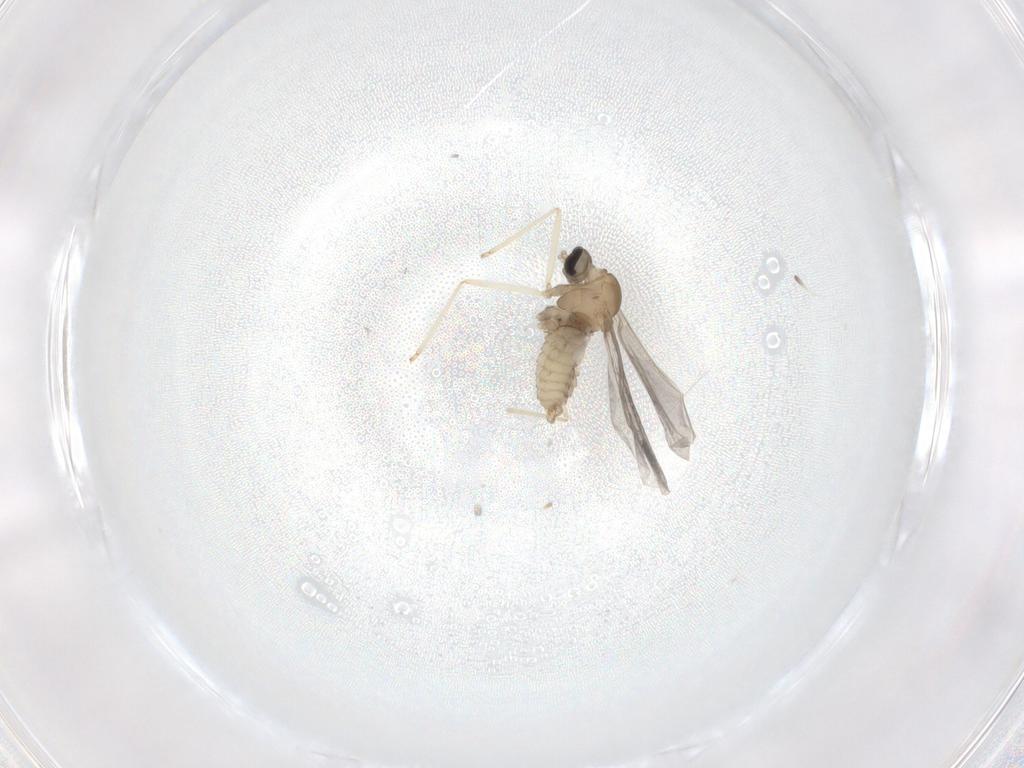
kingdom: Animalia
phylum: Arthropoda
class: Insecta
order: Diptera
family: Cecidomyiidae
